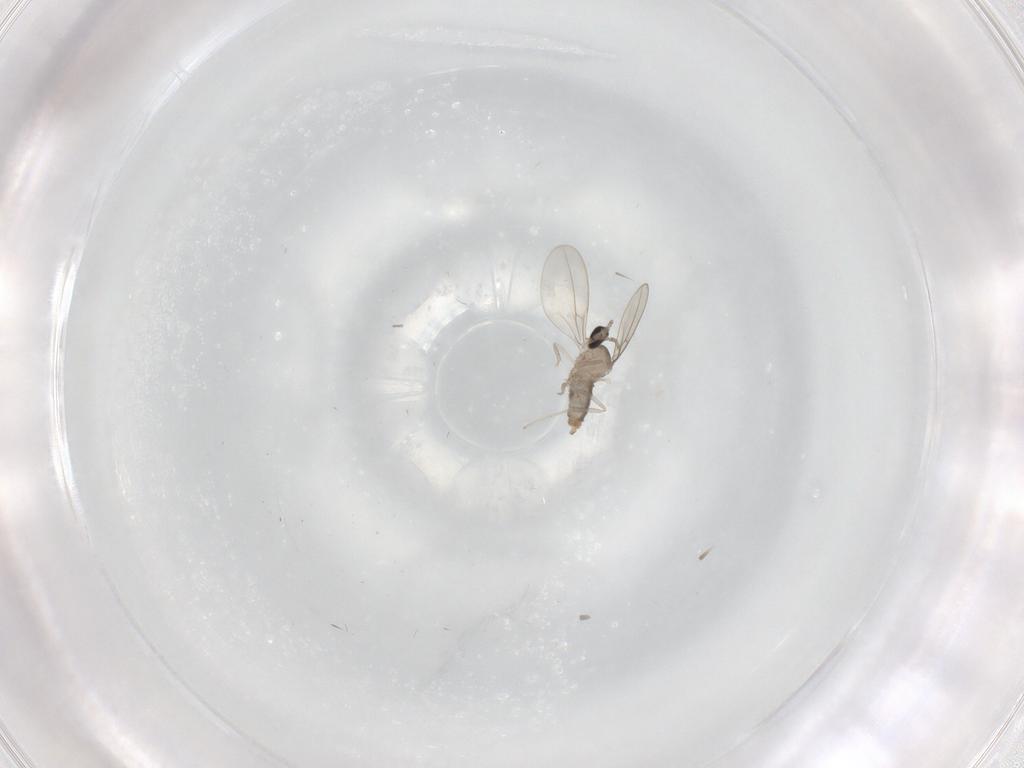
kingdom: Animalia
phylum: Arthropoda
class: Insecta
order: Diptera
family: Sciaridae
